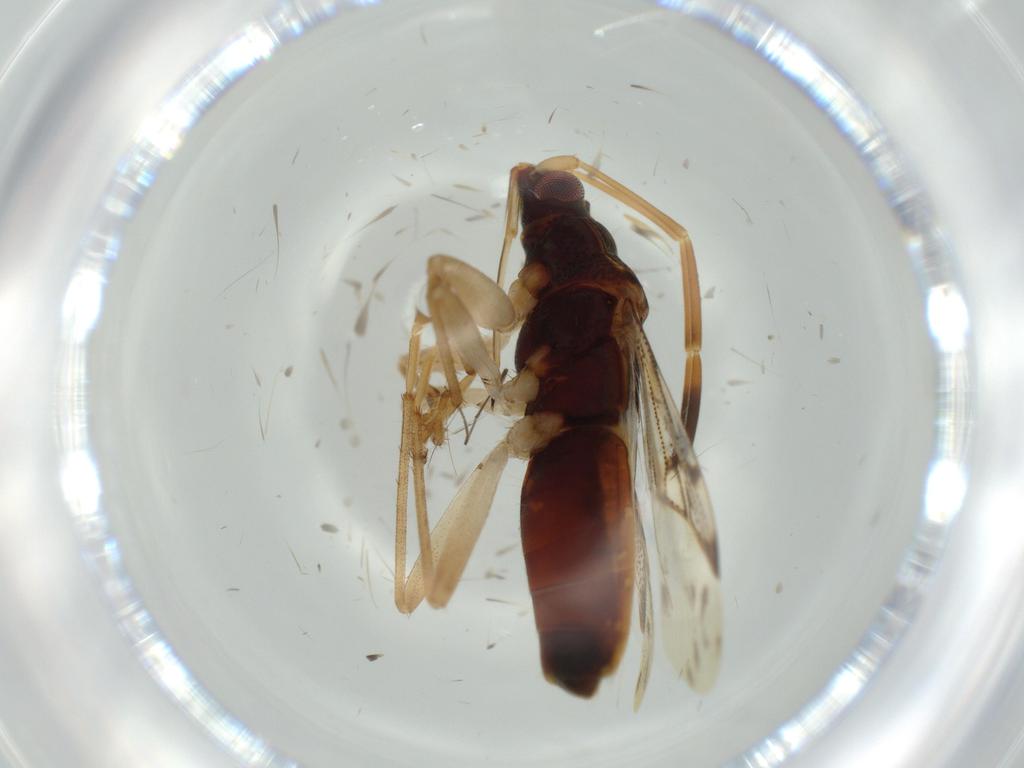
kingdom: Animalia
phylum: Arthropoda
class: Insecta
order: Hemiptera
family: Rhyparochromidae
